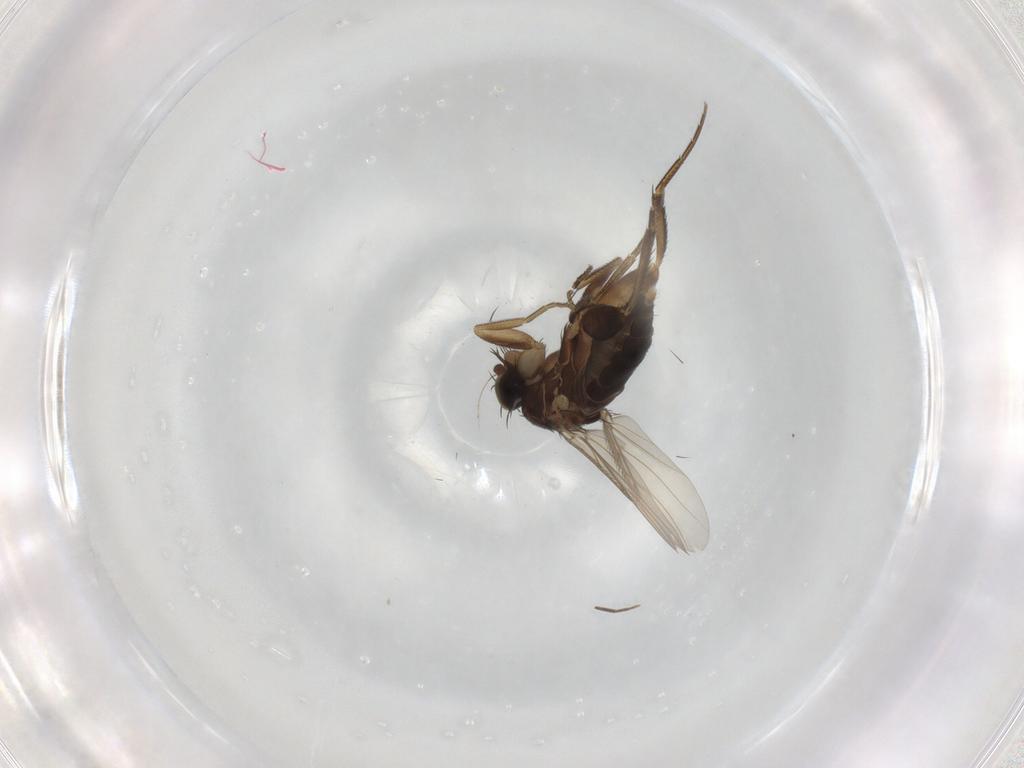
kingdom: Animalia
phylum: Arthropoda
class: Insecta
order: Diptera
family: Phoridae
